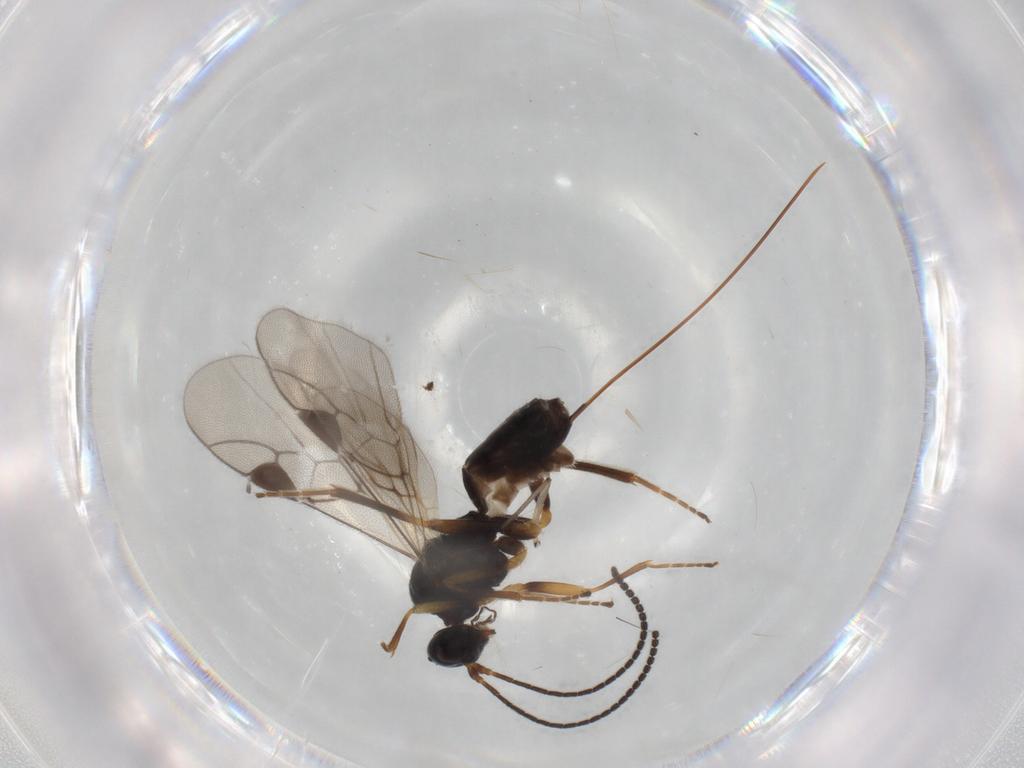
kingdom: Animalia
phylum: Arthropoda
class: Insecta
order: Hymenoptera
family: Braconidae
